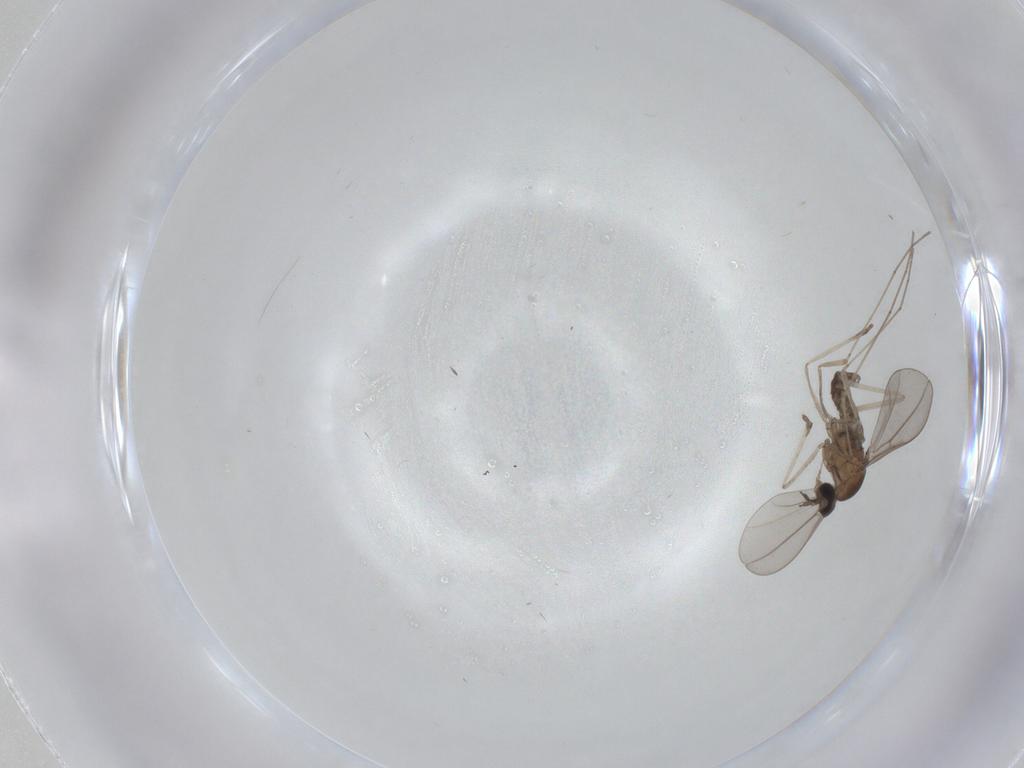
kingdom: Animalia
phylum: Arthropoda
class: Insecta
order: Diptera
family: Cecidomyiidae
